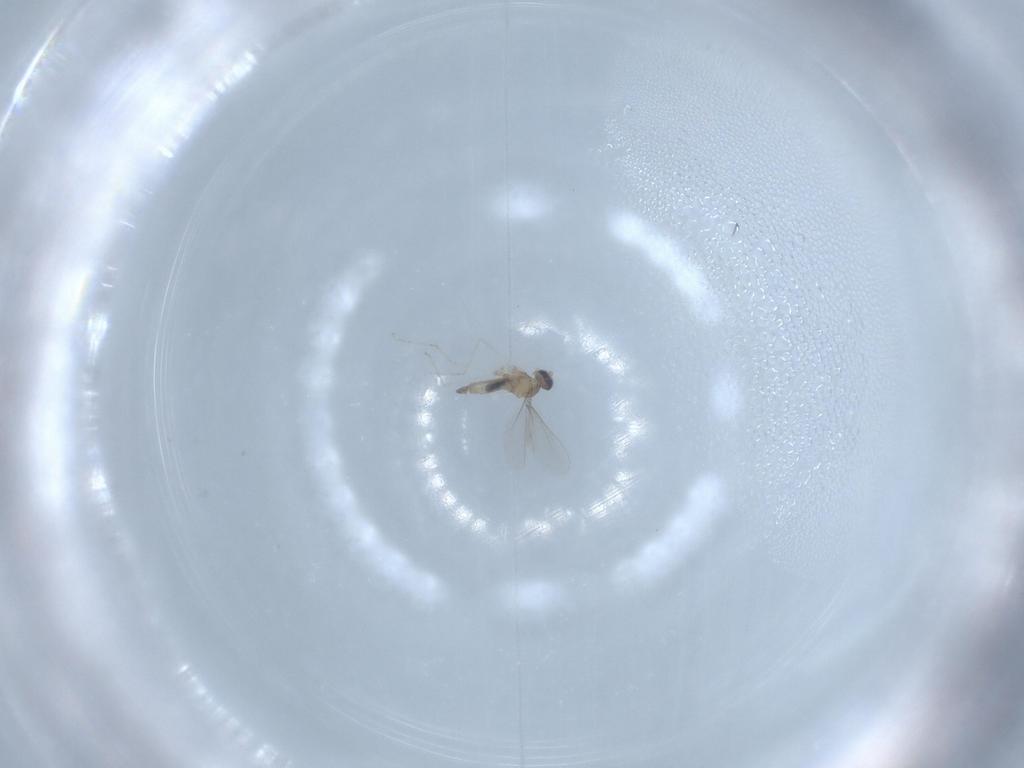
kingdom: Animalia
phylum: Arthropoda
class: Insecta
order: Diptera
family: Cecidomyiidae
